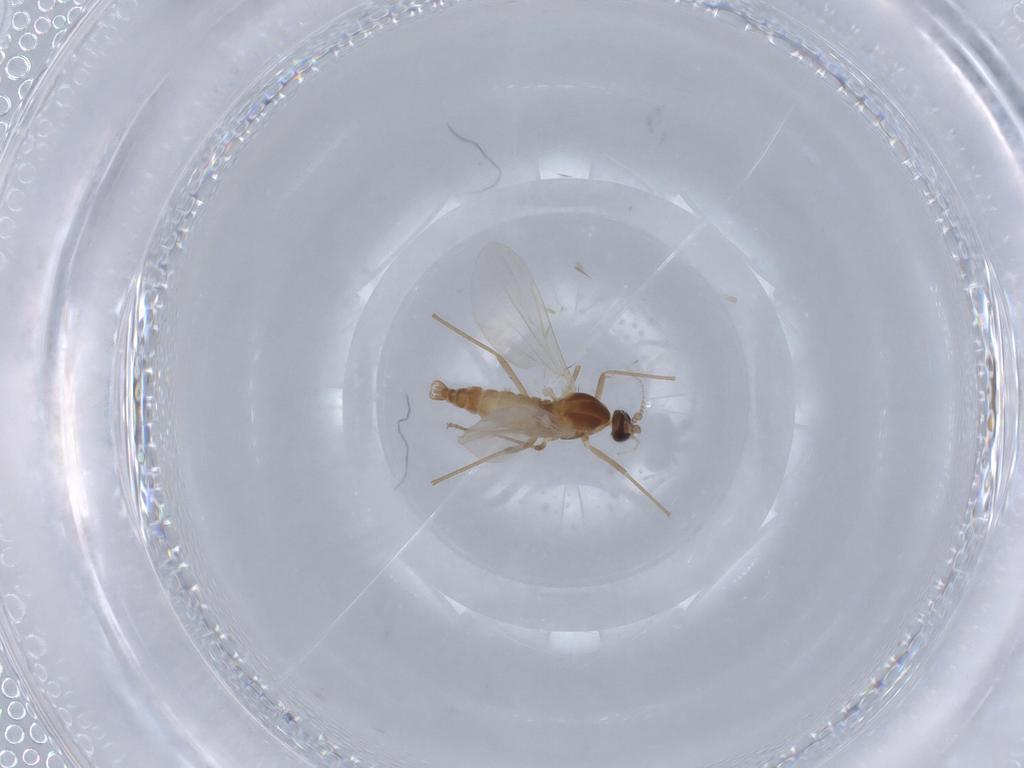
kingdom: Animalia
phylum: Arthropoda
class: Insecta
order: Diptera
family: Cecidomyiidae
